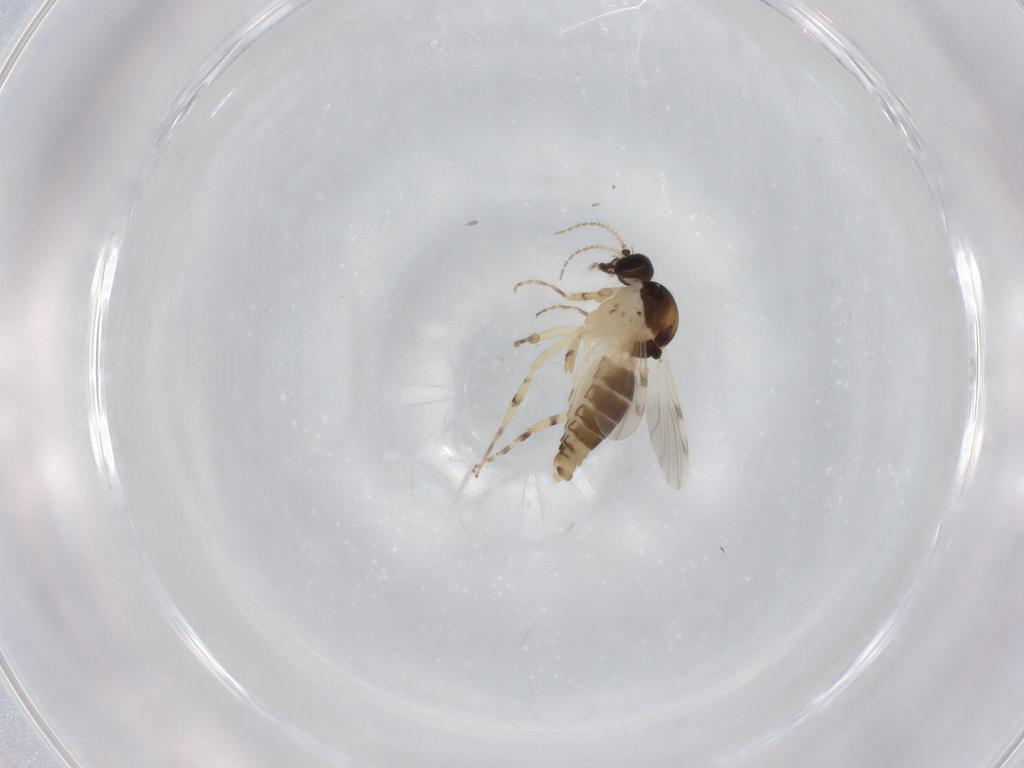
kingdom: Animalia
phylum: Arthropoda
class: Insecta
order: Diptera
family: Ceratopogonidae
